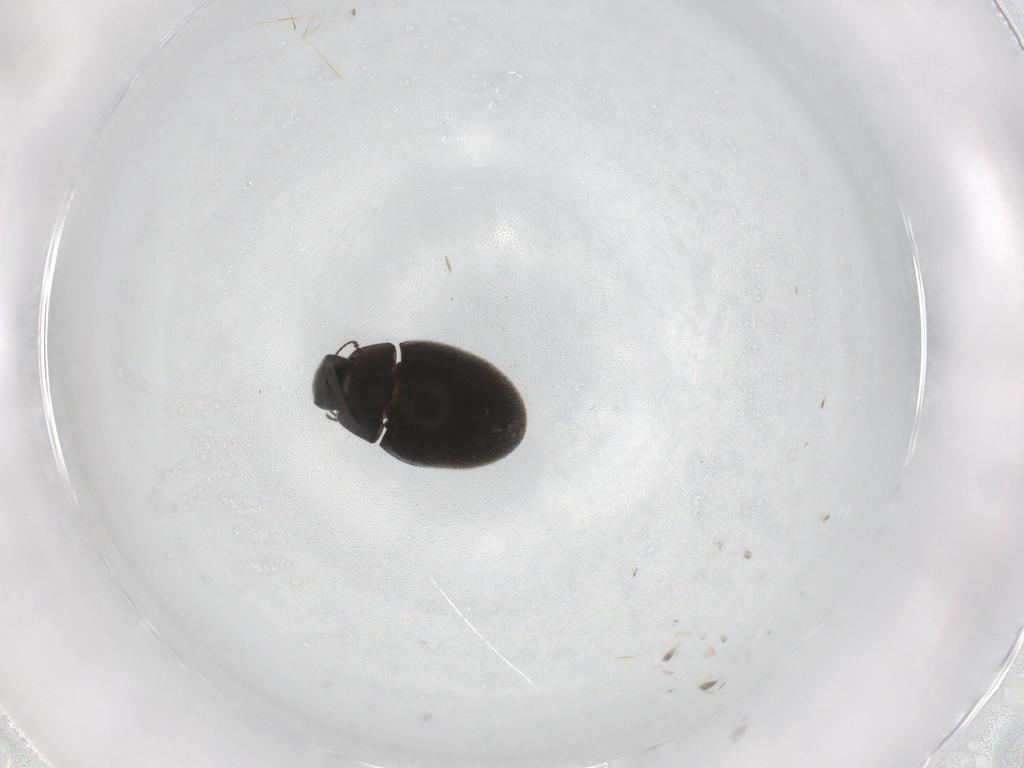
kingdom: Animalia
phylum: Arthropoda
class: Insecta
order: Coleoptera
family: Limnichidae
